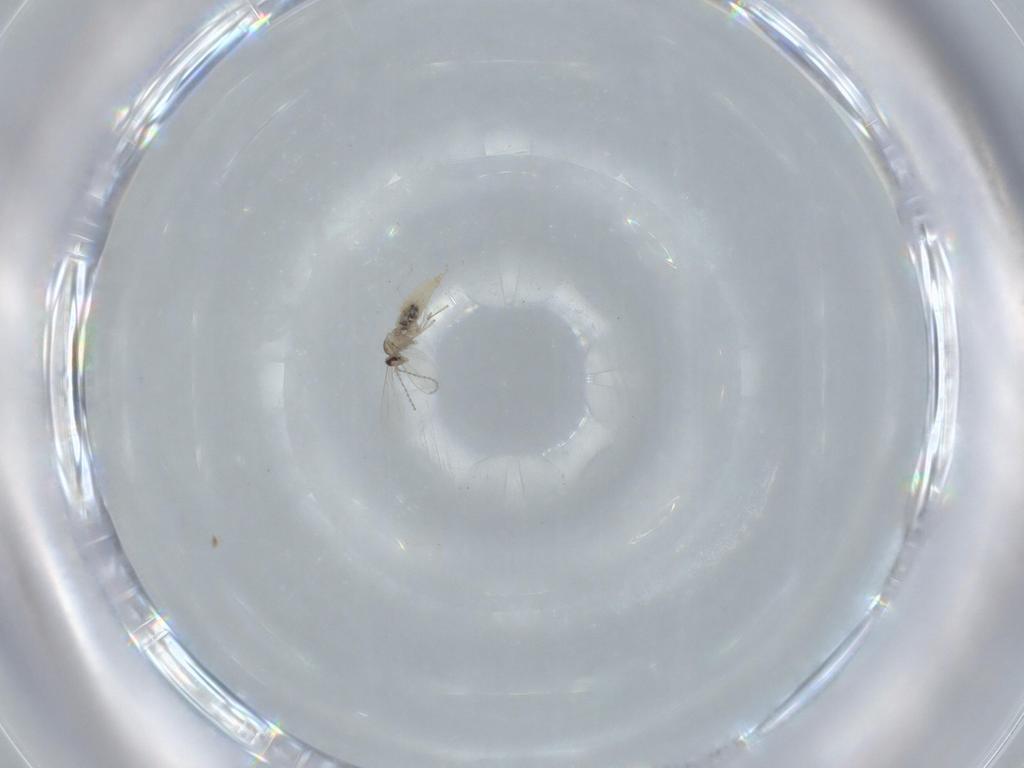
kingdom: Animalia
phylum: Arthropoda
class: Insecta
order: Diptera
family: Cecidomyiidae
